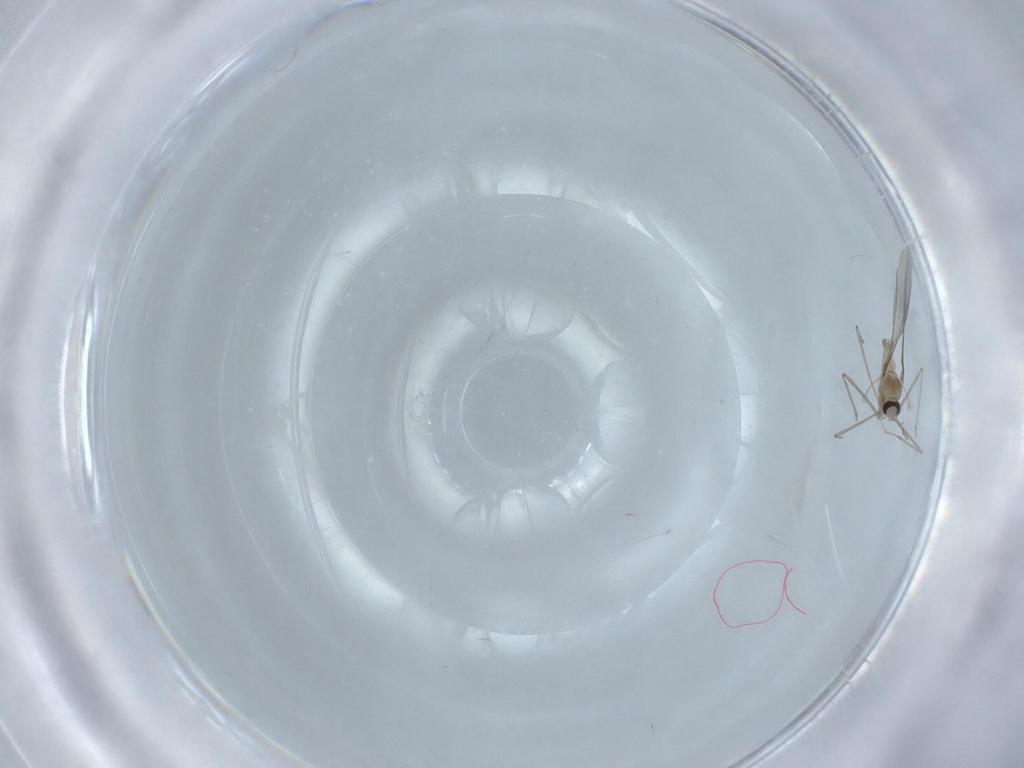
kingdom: Animalia
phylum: Arthropoda
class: Insecta
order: Diptera
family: Cecidomyiidae
